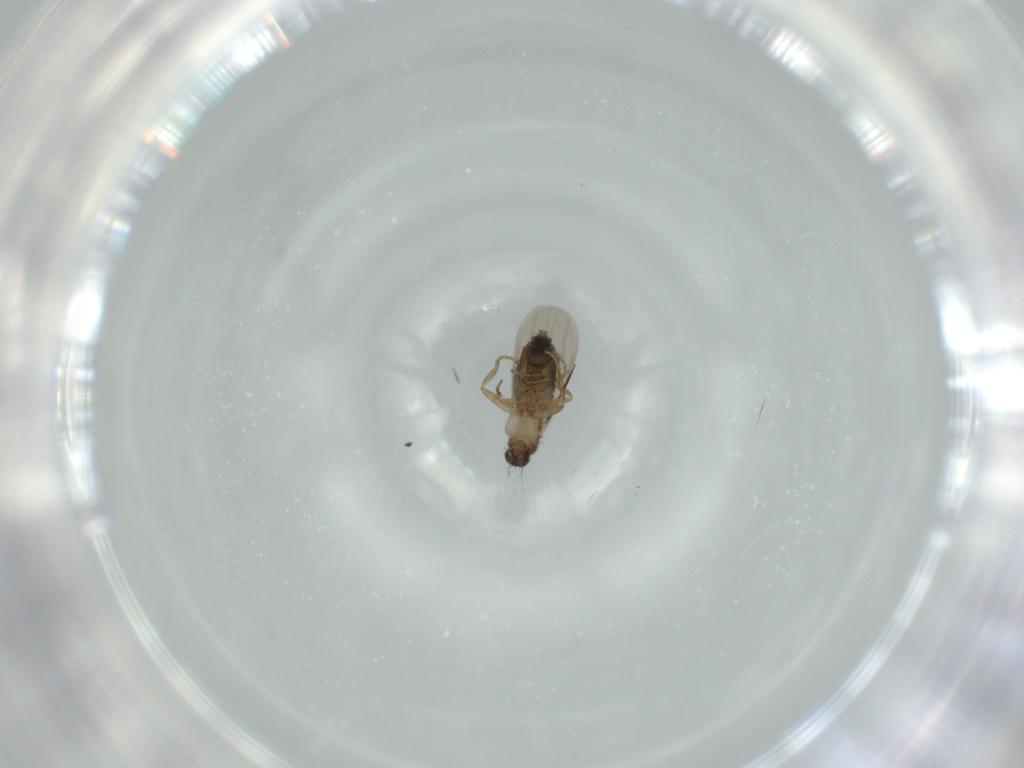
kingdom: Animalia
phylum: Arthropoda
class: Insecta
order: Diptera
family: Phoridae
